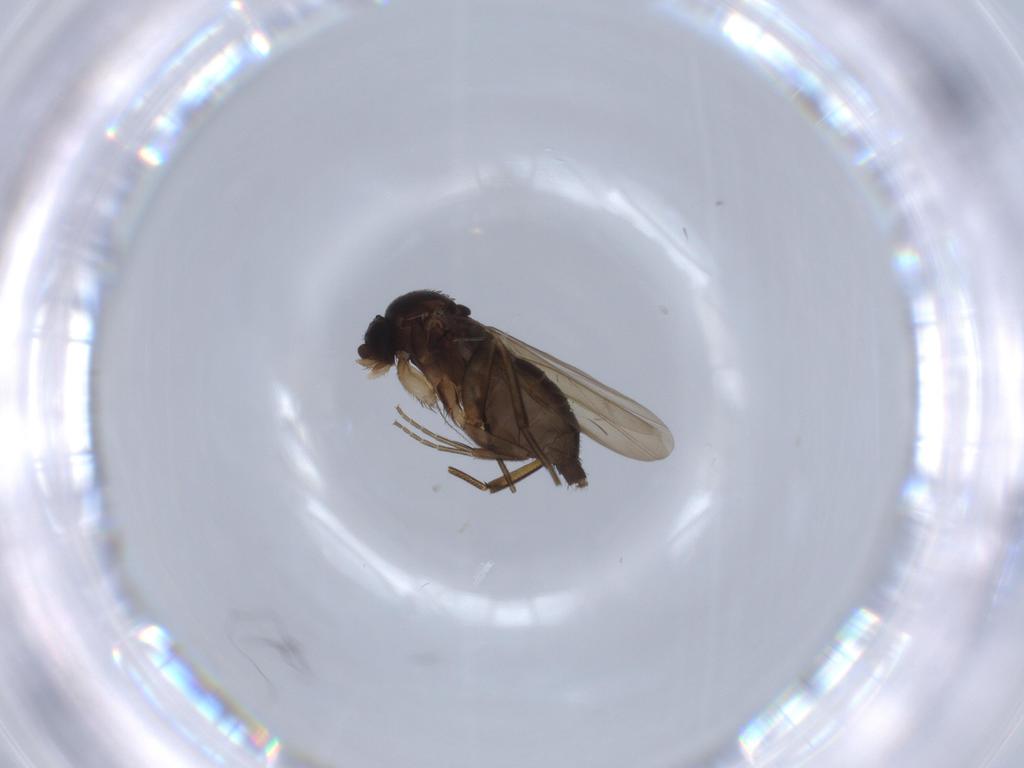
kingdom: Animalia
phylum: Arthropoda
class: Insecta
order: Diptera
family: Phoridae
